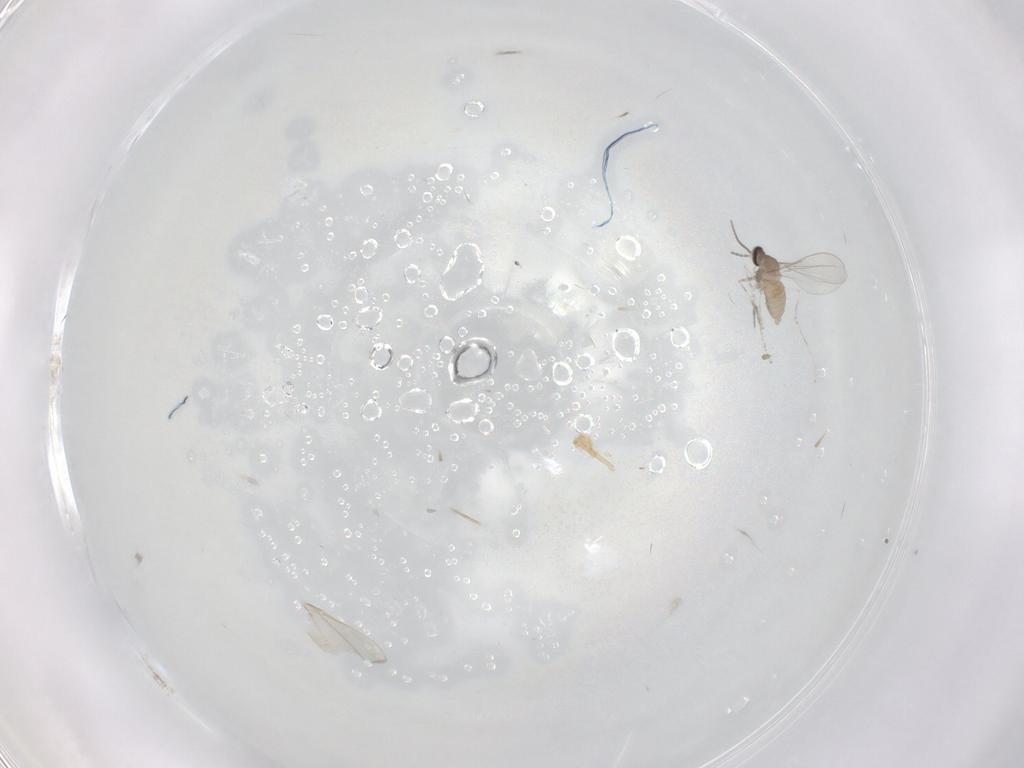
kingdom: Animalia
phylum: Arthropoda
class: Insecta
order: Diptera
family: Cecidomyiidae
